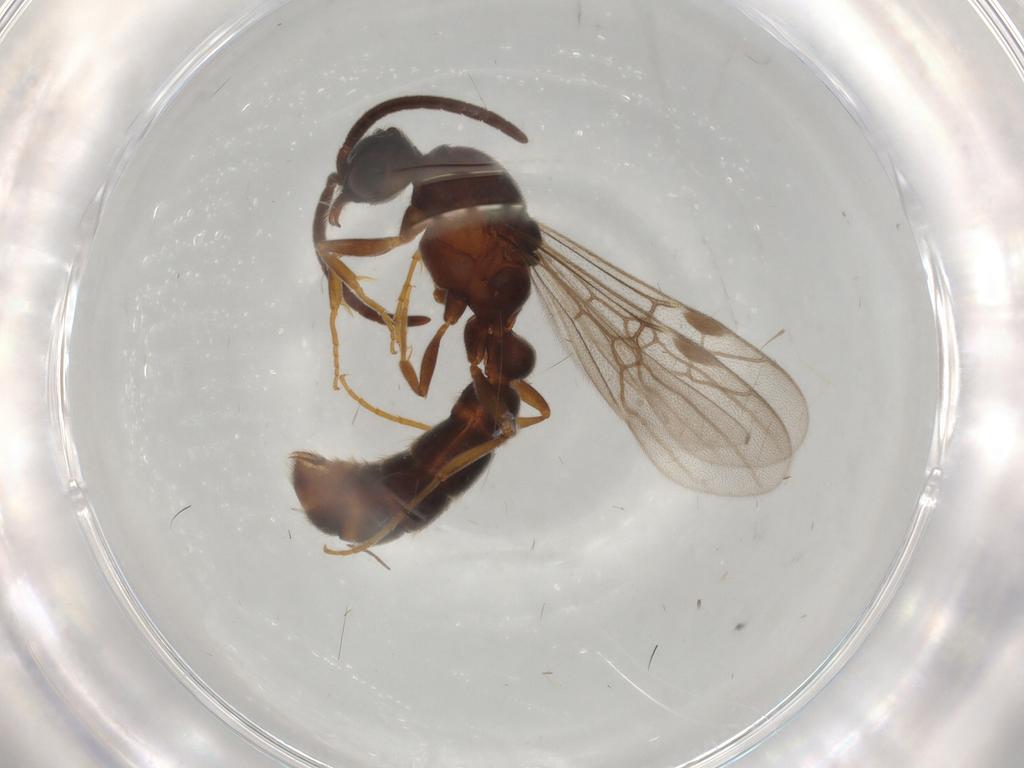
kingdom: Animalia
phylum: Arthropoda
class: Insecta
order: Hymenoptera
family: Formicidae
